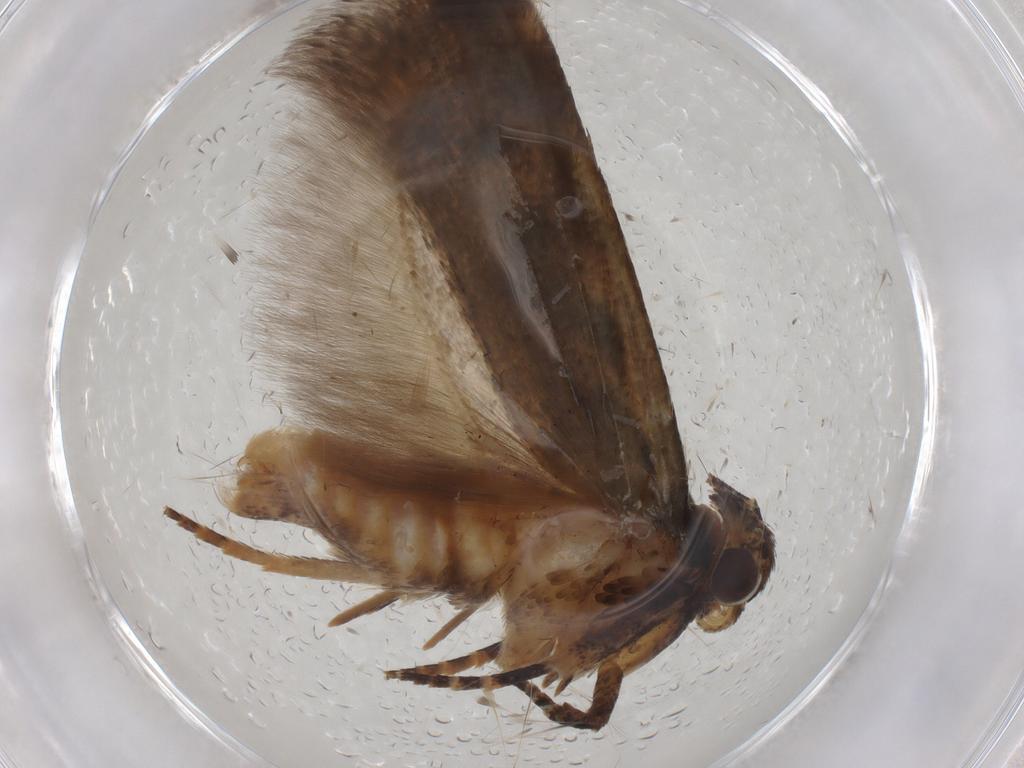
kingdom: Animalia
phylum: Arthropoda
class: Insecta
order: Lepidoptera
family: Gelechiidae
